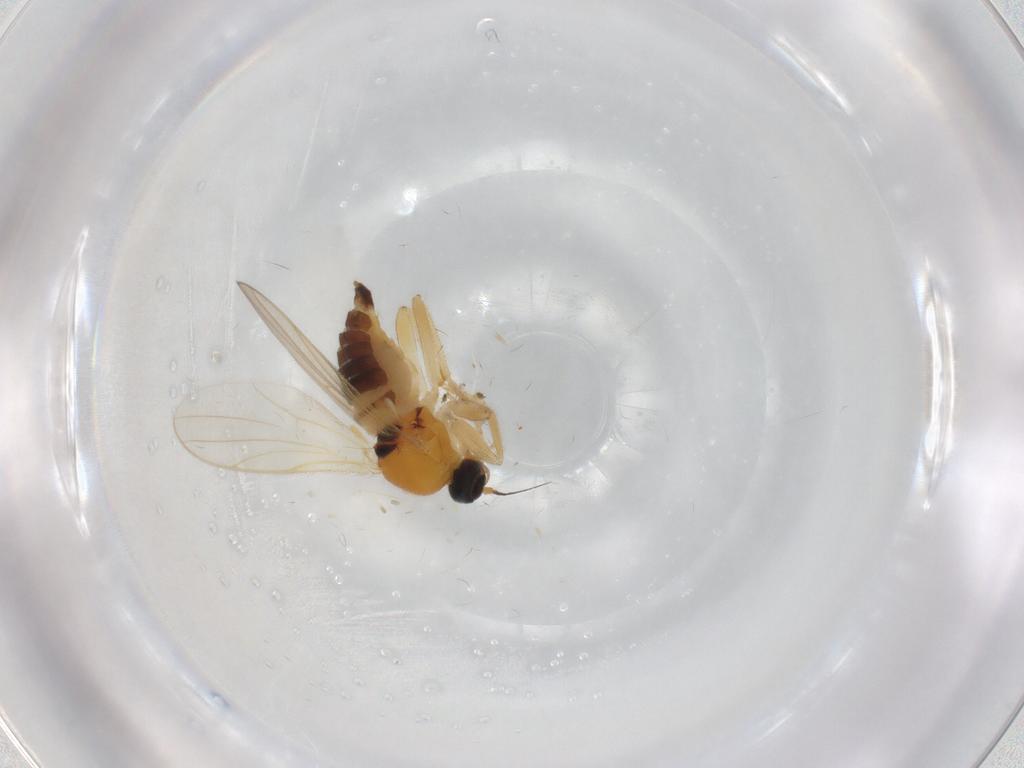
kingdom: Animalia
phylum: Arthropoda
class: Insecta
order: Diptera
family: Hybotidae
